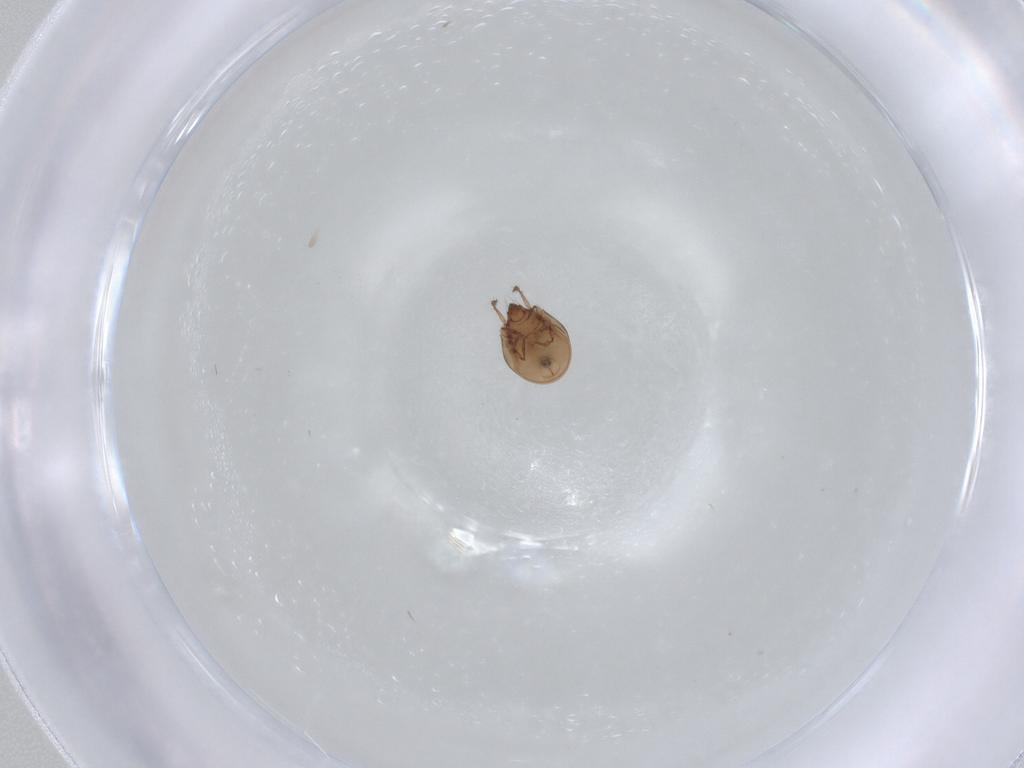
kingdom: Animalia
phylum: Arthropoda
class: Arachnida
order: Sarcoptiformes
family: Ceratozetidae
